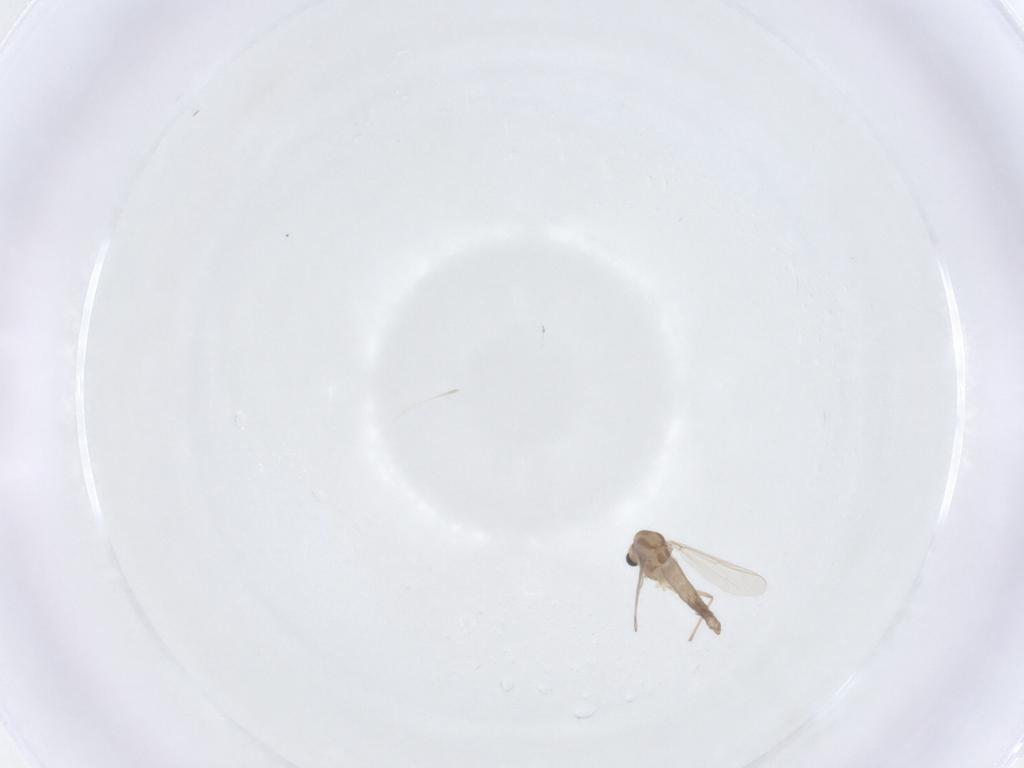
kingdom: Animalia
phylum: Arthropoda
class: Insecta
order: Diptera
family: Chironomidae
